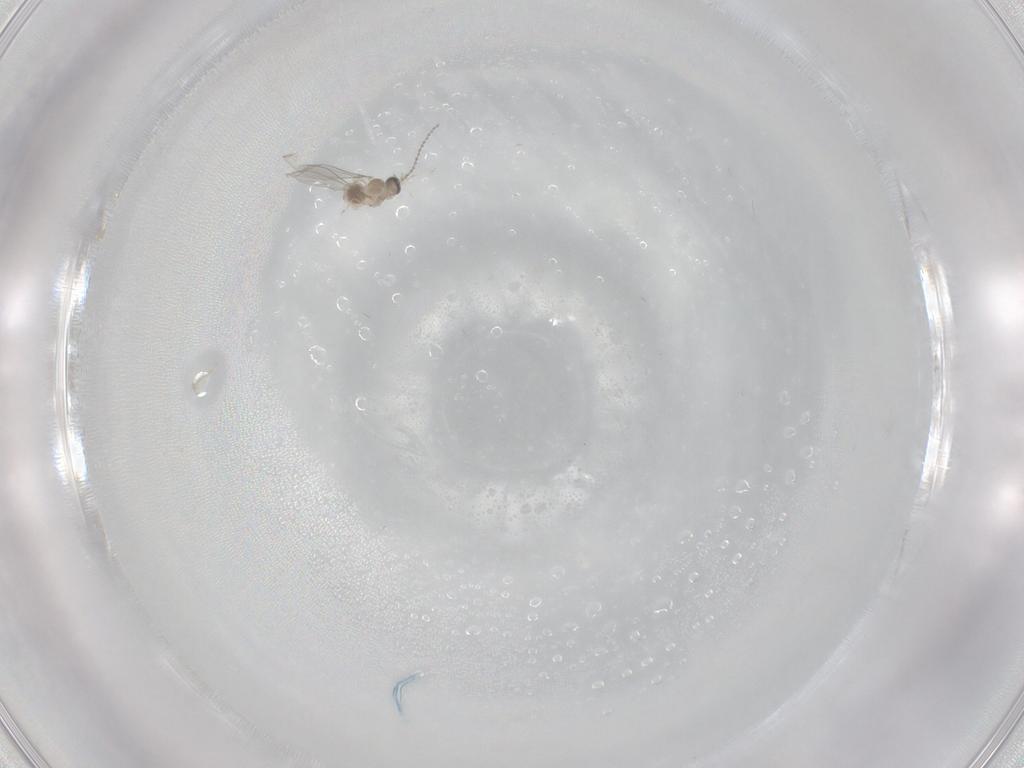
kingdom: Animalia
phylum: Arthropoda
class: Insecta
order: Diptera
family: Cecidomyiidae
